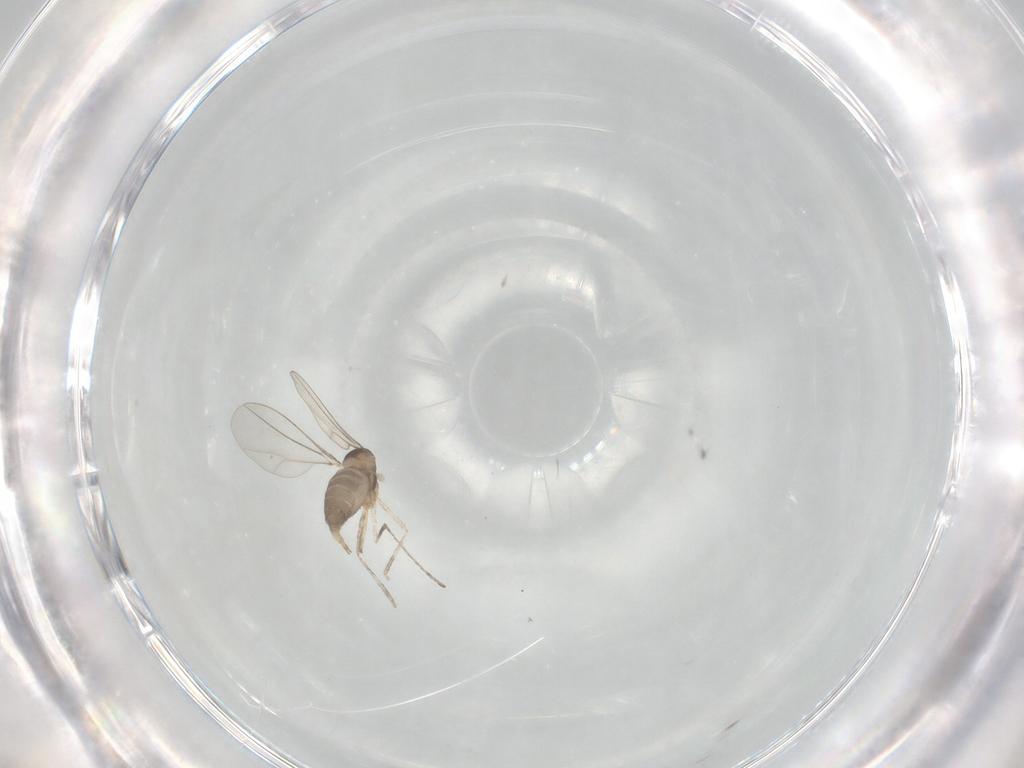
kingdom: Animalia
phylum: Arthropoda
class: Insecta
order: Diptera
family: Cecidomyiidae
